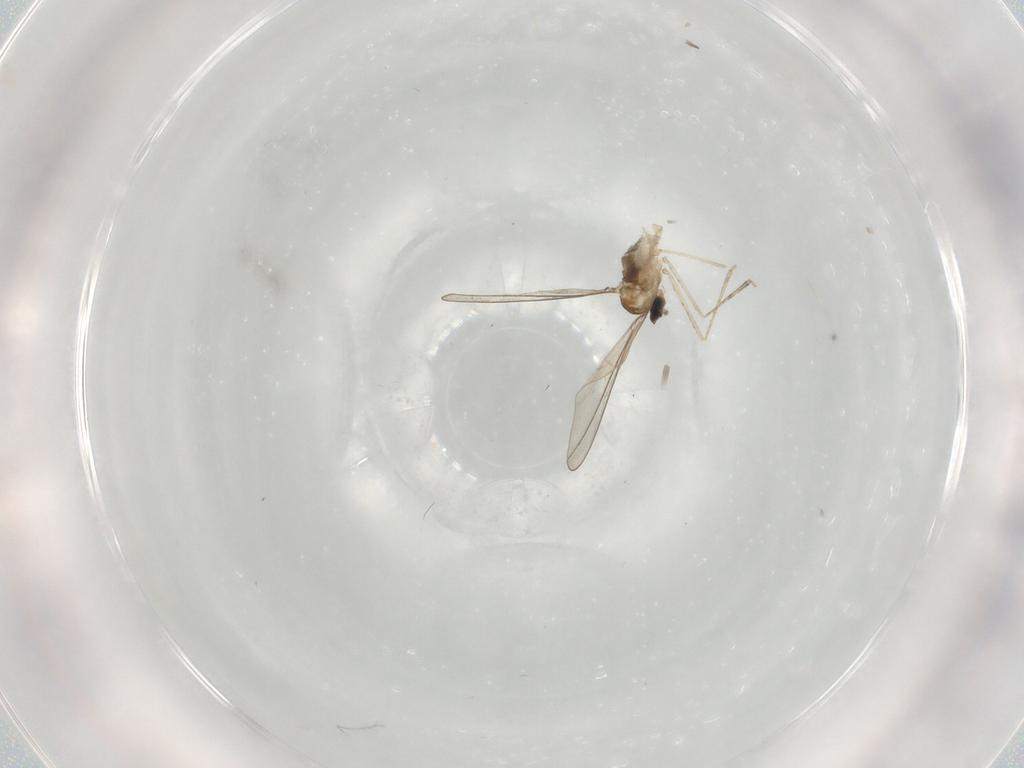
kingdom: Animalia
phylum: Arthropoda
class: Insecta
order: Diptera
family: Cecidomyiidae
